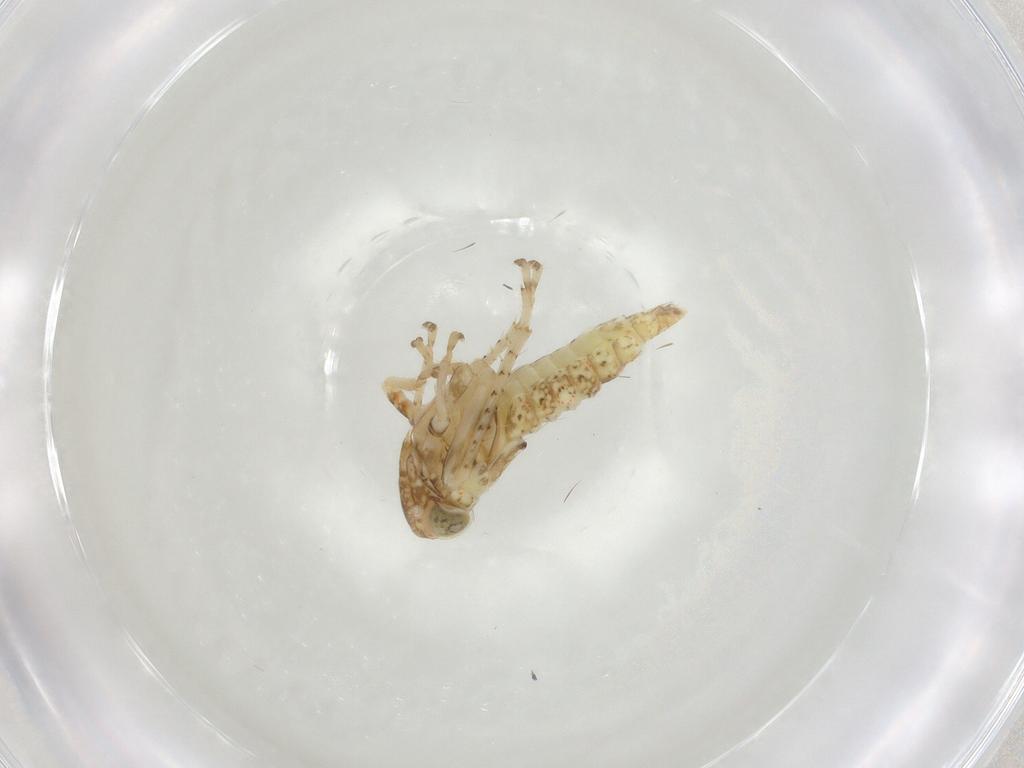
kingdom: Animalia
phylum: Arthropoda
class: Insecta
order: Hemiptera
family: Cicadellidae
